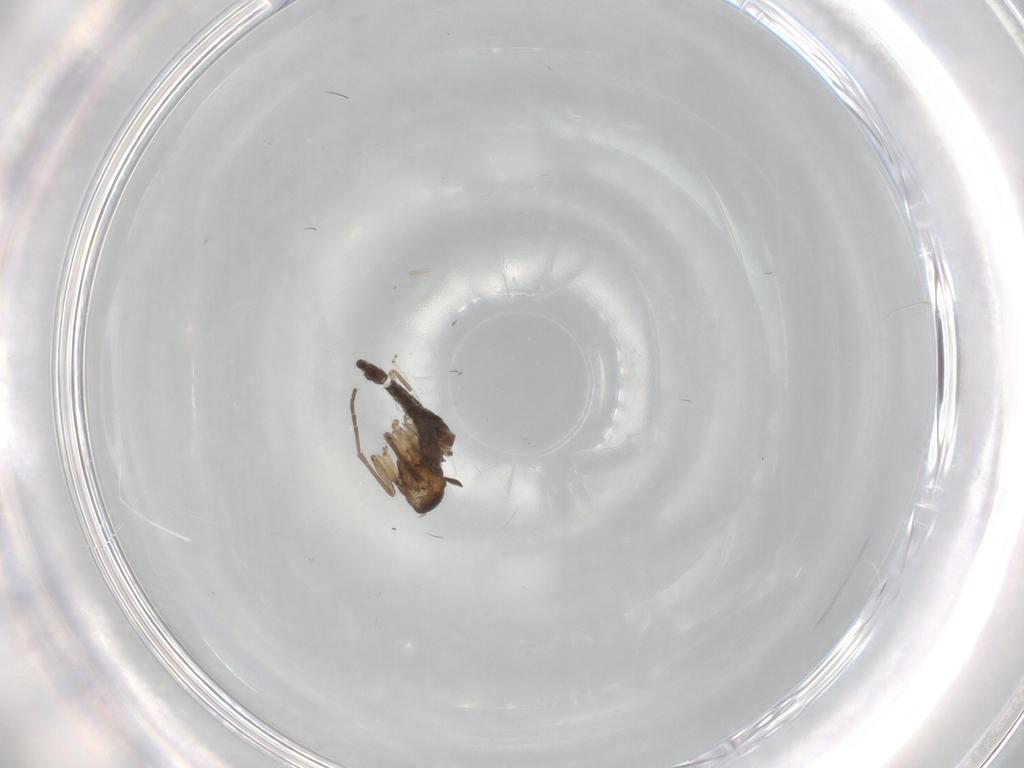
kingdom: Animalia
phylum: Arthropoda
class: Insecta
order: Diptera
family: Cecidomyiidae
